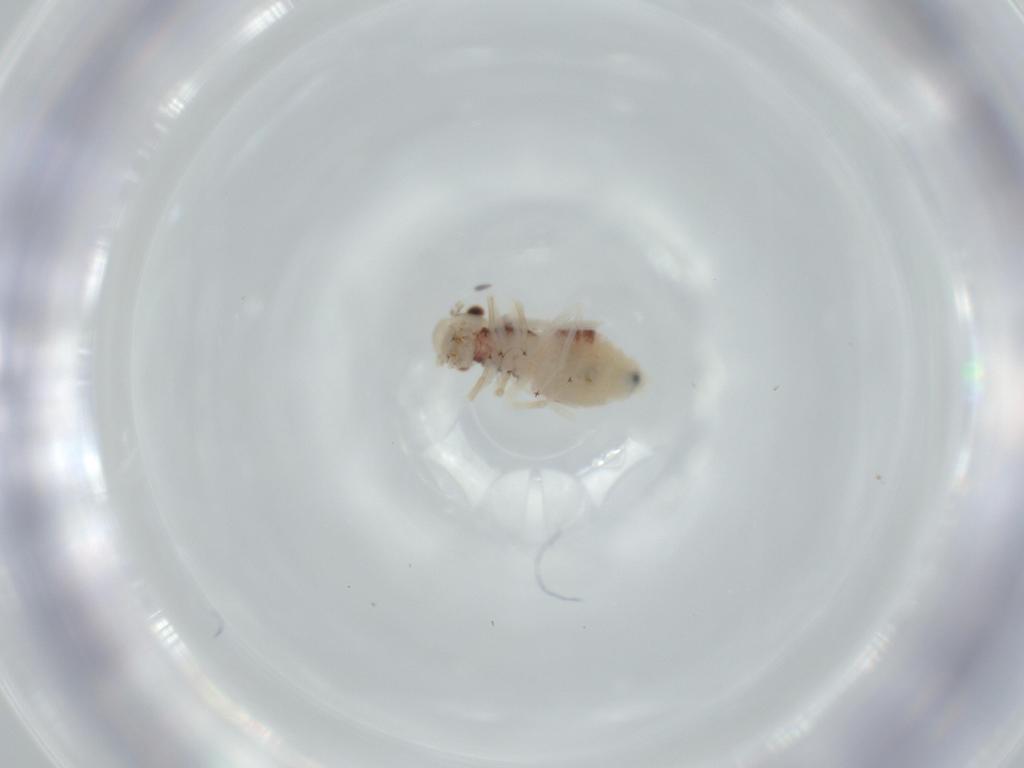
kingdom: Animalia
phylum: Arthropoda
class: Insecta
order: Psocodea
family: Caeciliusidae
